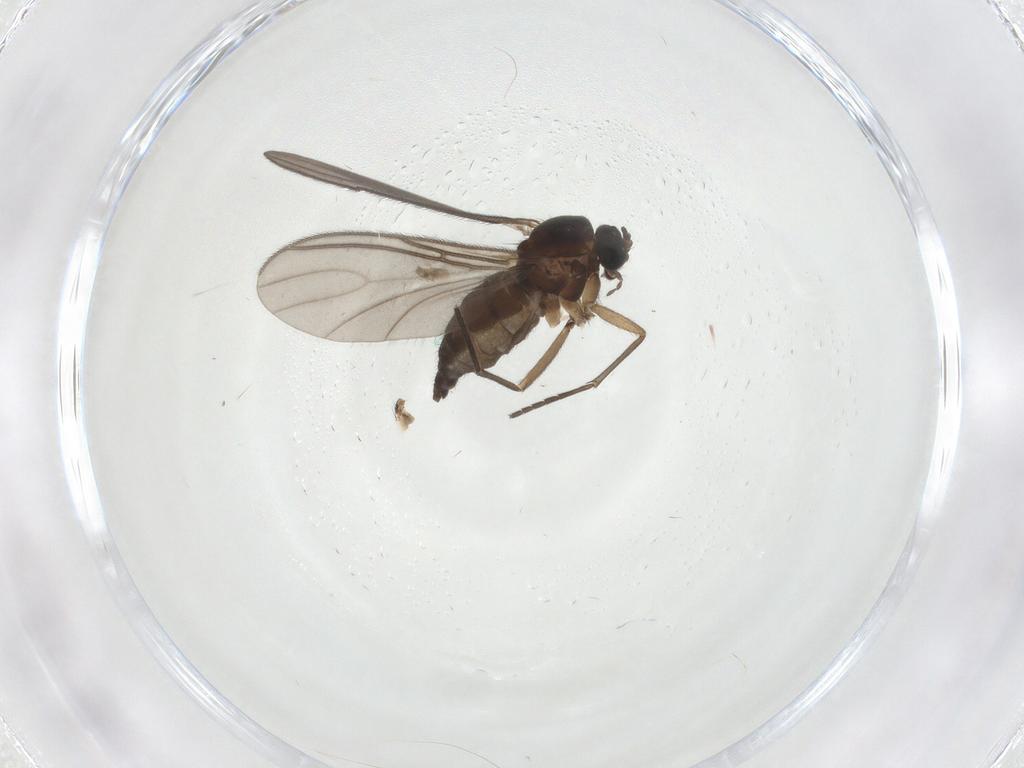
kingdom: Animalia
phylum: Arthropoda
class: Insecta
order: Diptera
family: Sciaridae
